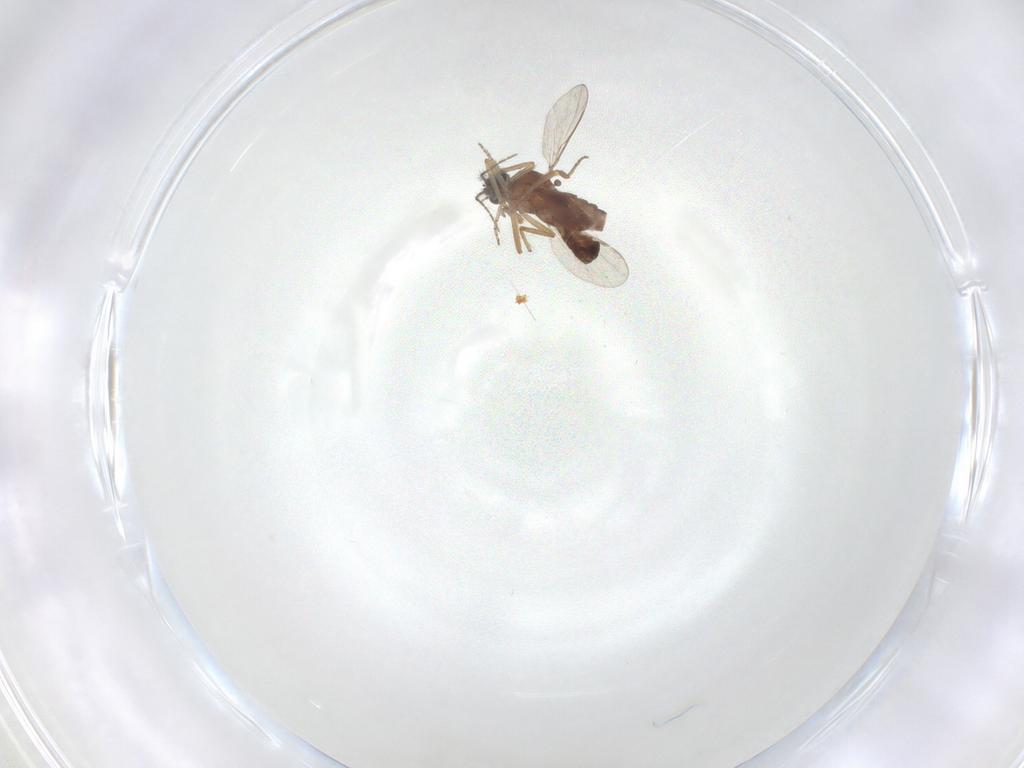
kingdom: Animalia
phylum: Arthropoda
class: Insecta
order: Diptera
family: Ceratopogonidae
